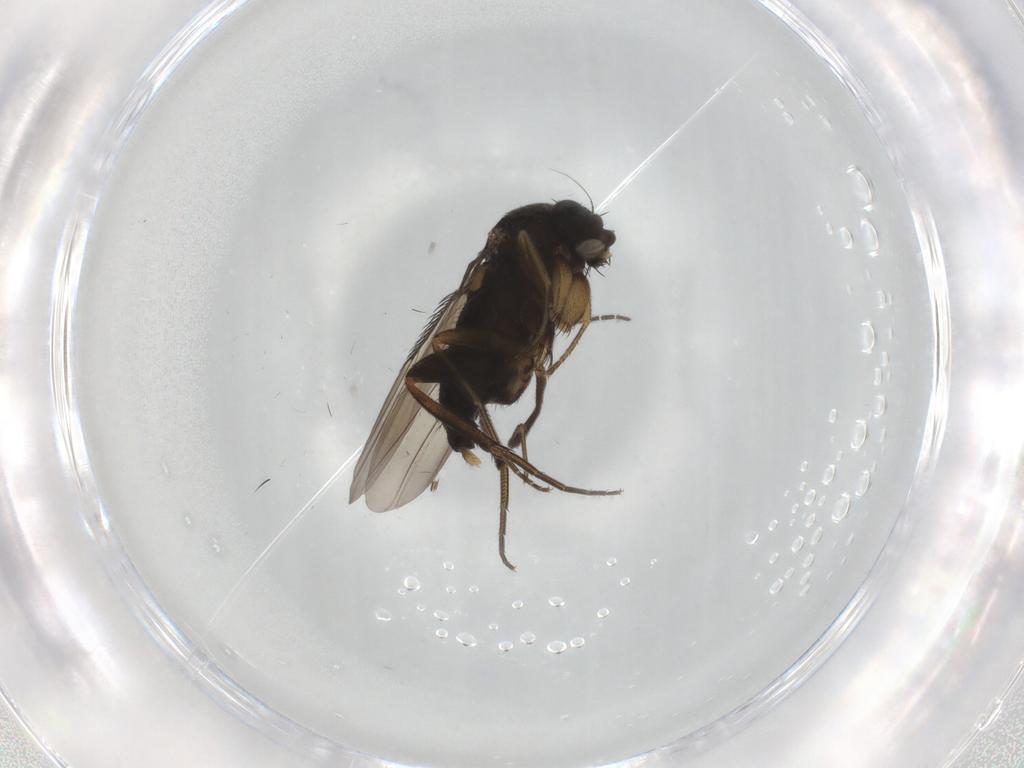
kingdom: Animalia
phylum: Arthropoda
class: Insecta
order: Diptera
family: Phoridae
